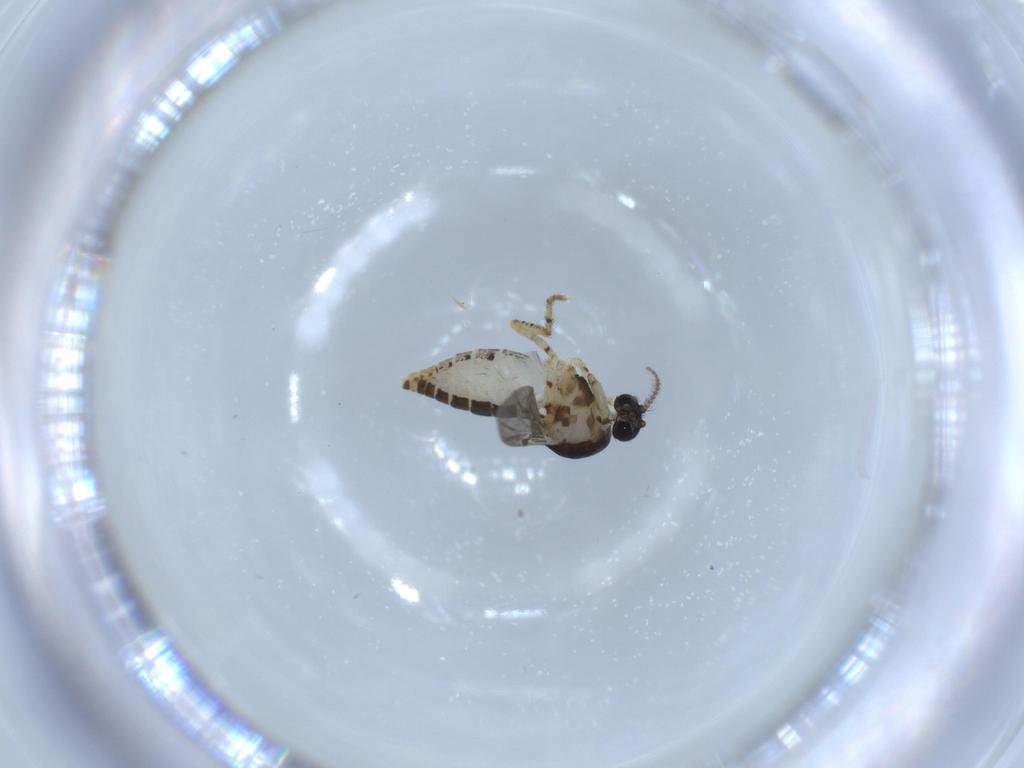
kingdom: Animalia
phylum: Arthropoda
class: Insecta
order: Diptera
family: Ceratopogonidae
